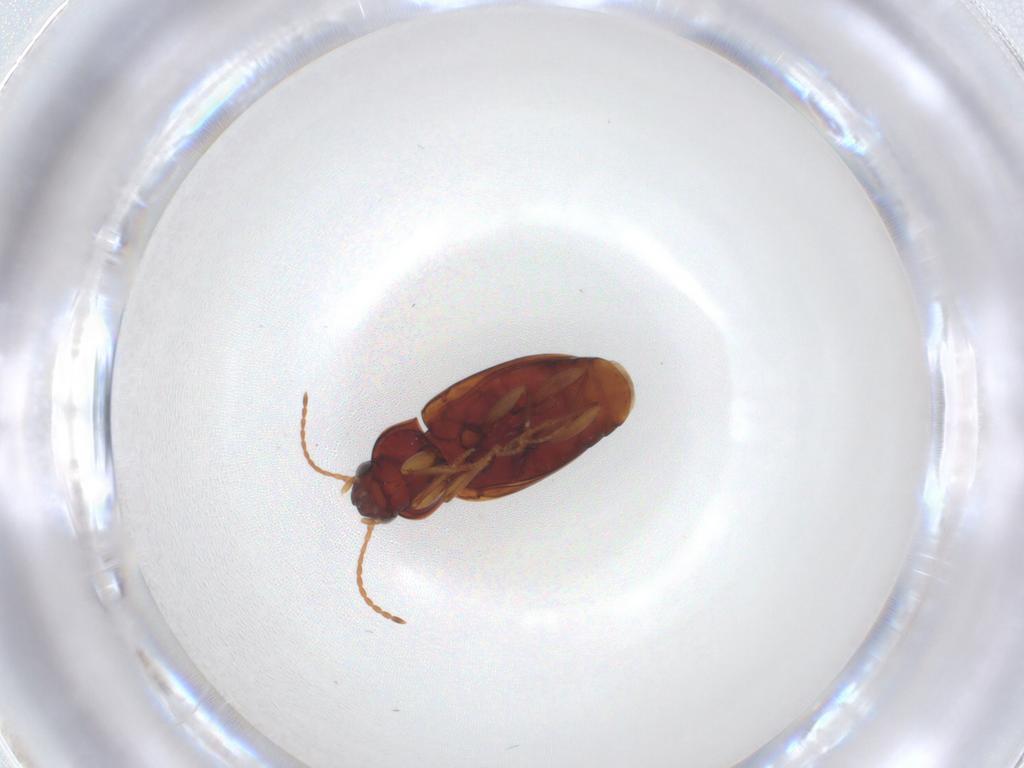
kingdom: Animalia
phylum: Arthropoda
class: Insecta
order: Coleoptera
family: Carabidae
